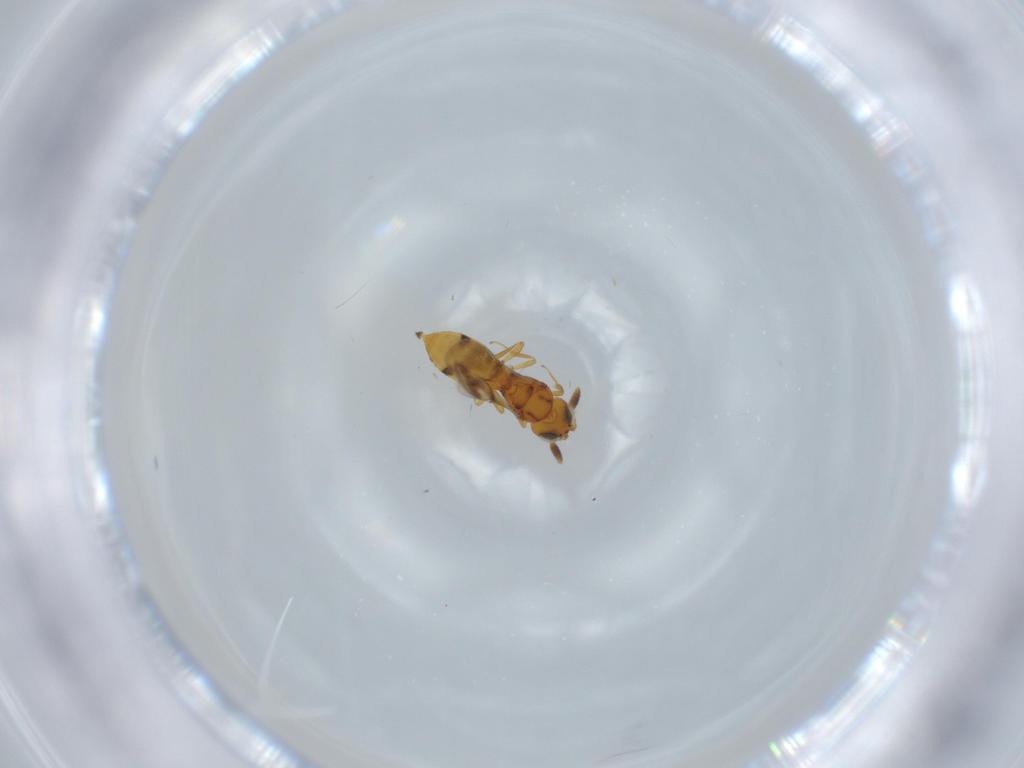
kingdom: Animalia
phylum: Arthropoda
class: Insecta
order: Hymenoptera
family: Scelionidae
